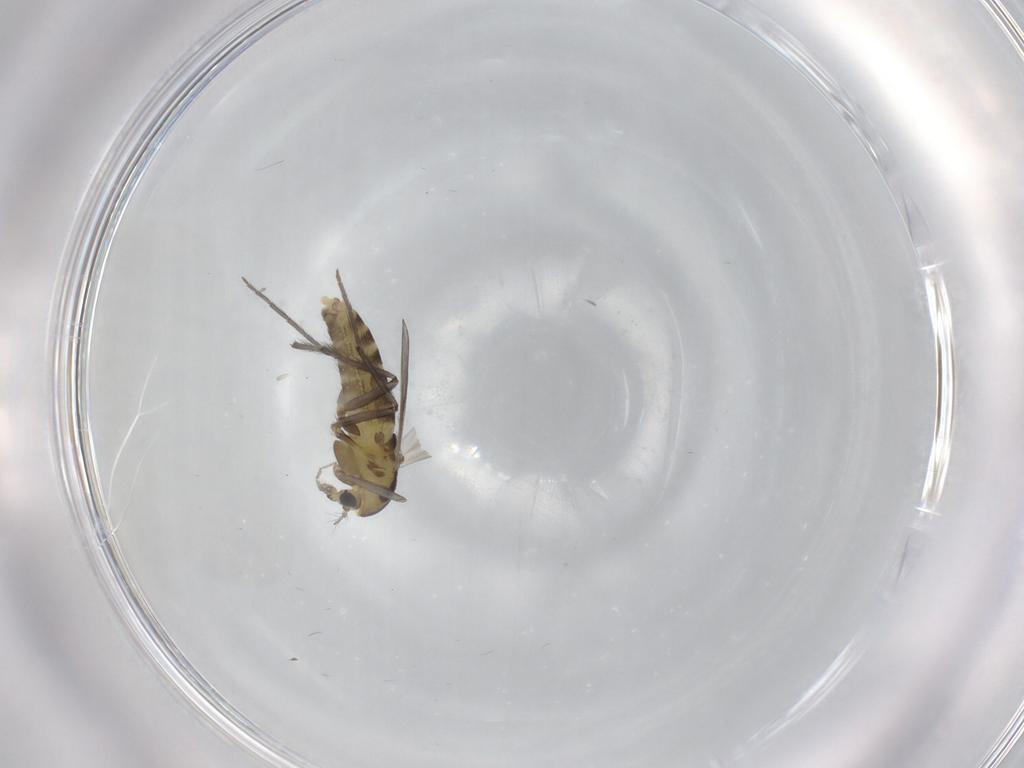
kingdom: Animalia
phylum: Arthropoda
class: Insecta
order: Diptera
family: Chironomidae
